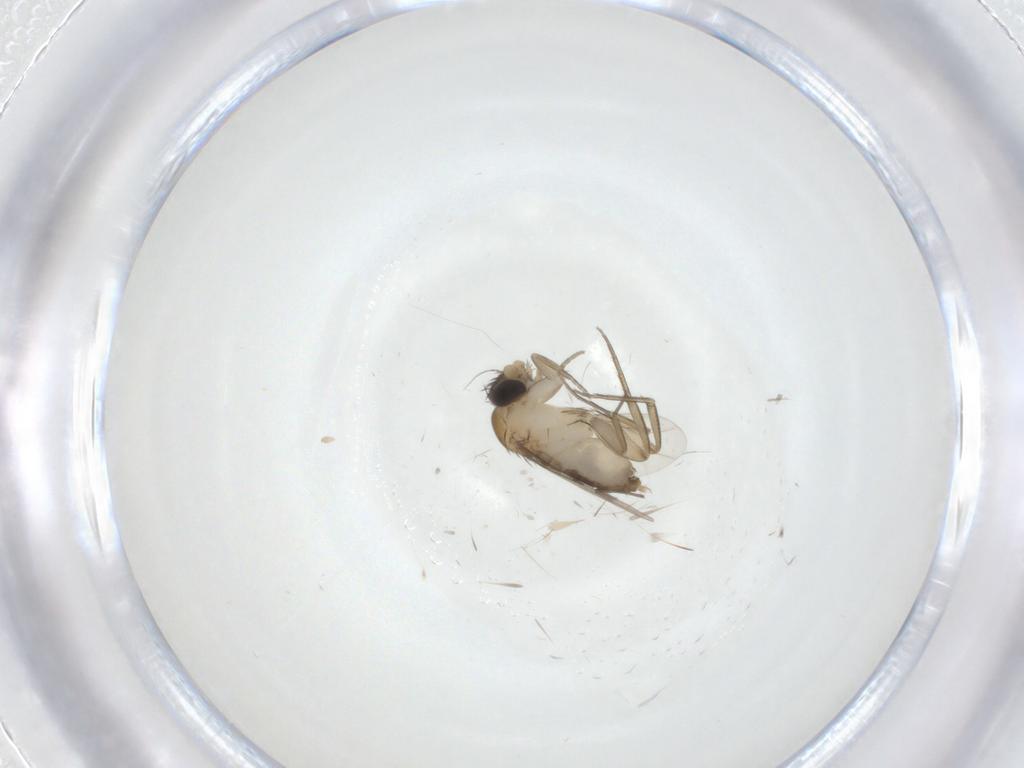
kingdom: Animalia
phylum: Arthropoda
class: Insecta
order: Diptera
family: Phoridae
